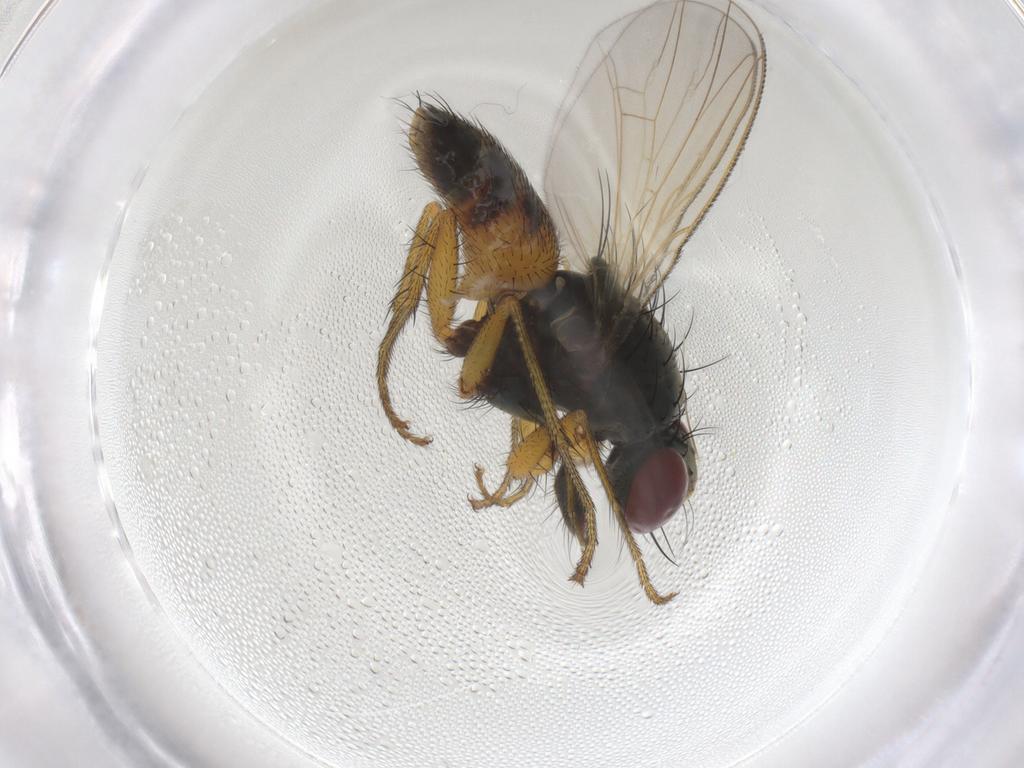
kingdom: Animalia
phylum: Arthropoda
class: Insecta
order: Diptera
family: Muscidae
